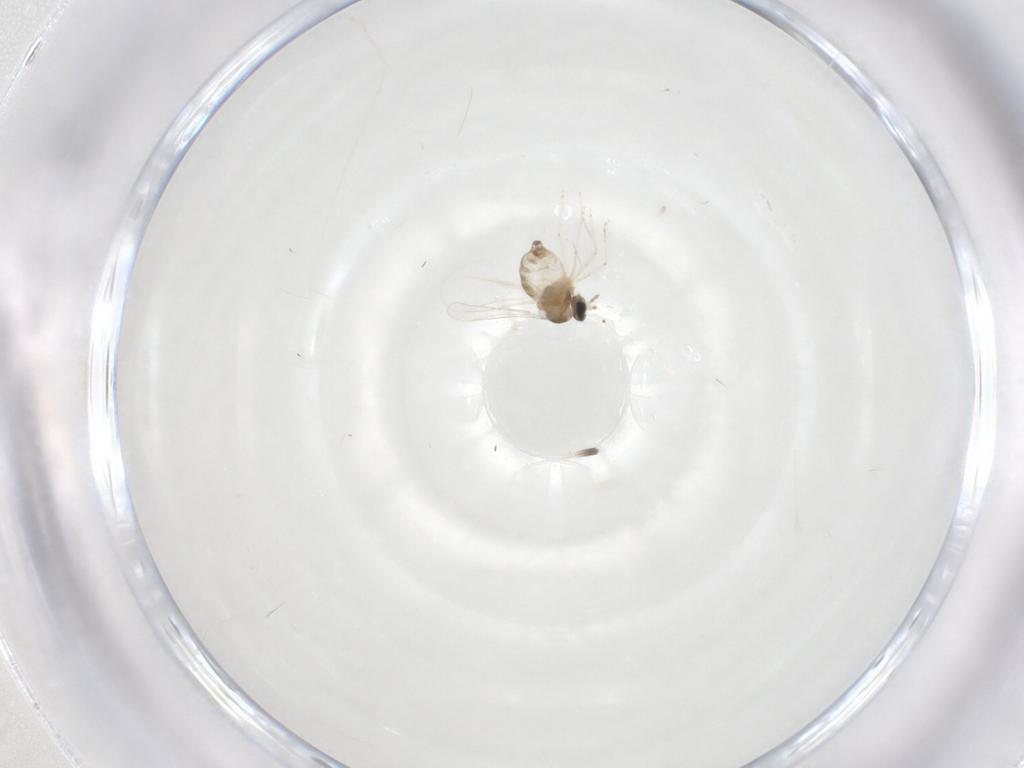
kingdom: Animalia
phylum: Arthropoda
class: Insecta
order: Diptera
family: Cecidomyiidae
